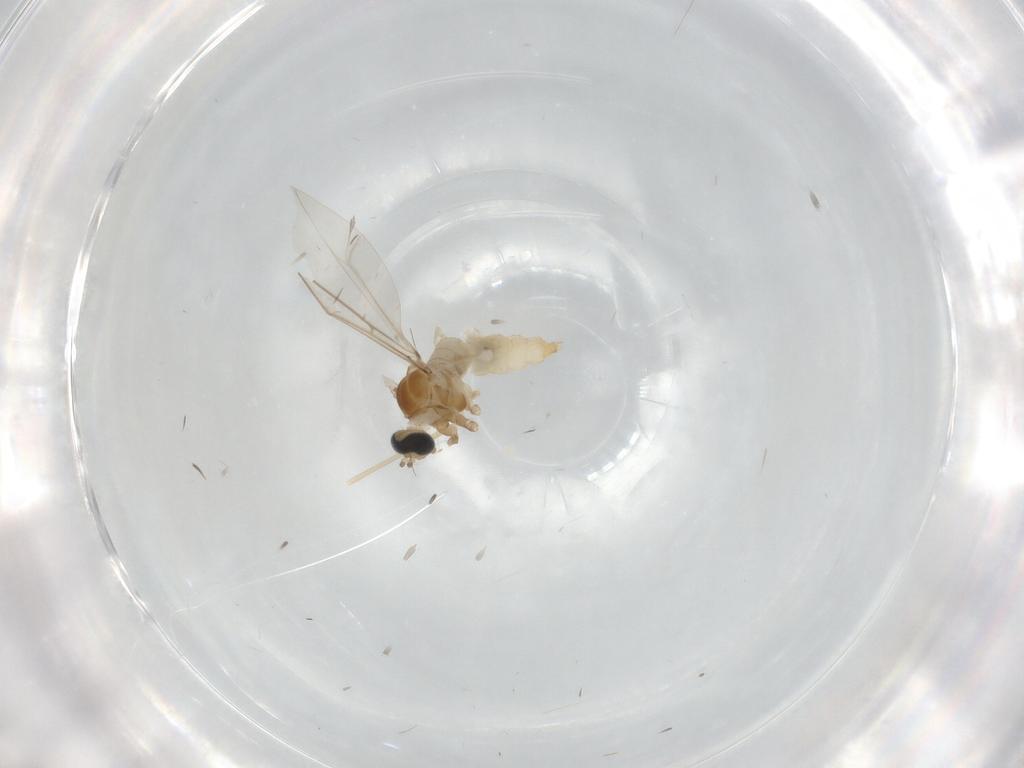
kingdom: Animalia
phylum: Arthropoda
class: Insecta
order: Diptera
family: Cecidomyiidae
